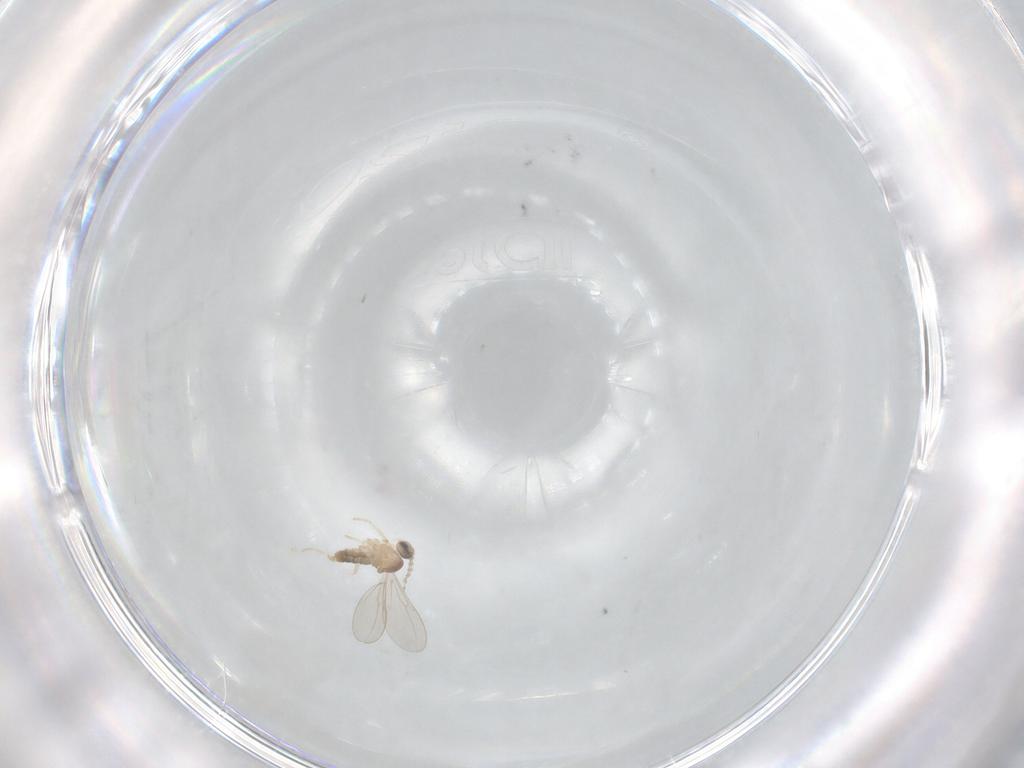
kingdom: Animalia
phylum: Arthropoda
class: Insecta
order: Diptera
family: Cecidomyiidae
